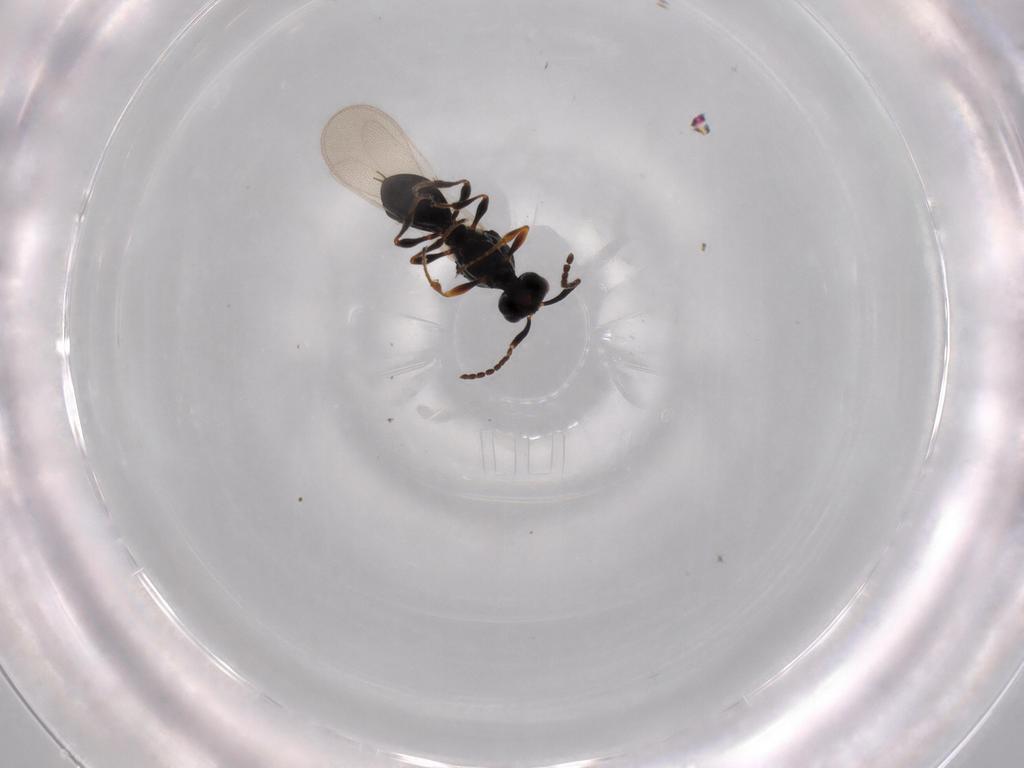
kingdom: Animalia
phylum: Arthropoda
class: Insecta
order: Diptera
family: Mythicomyiidae
